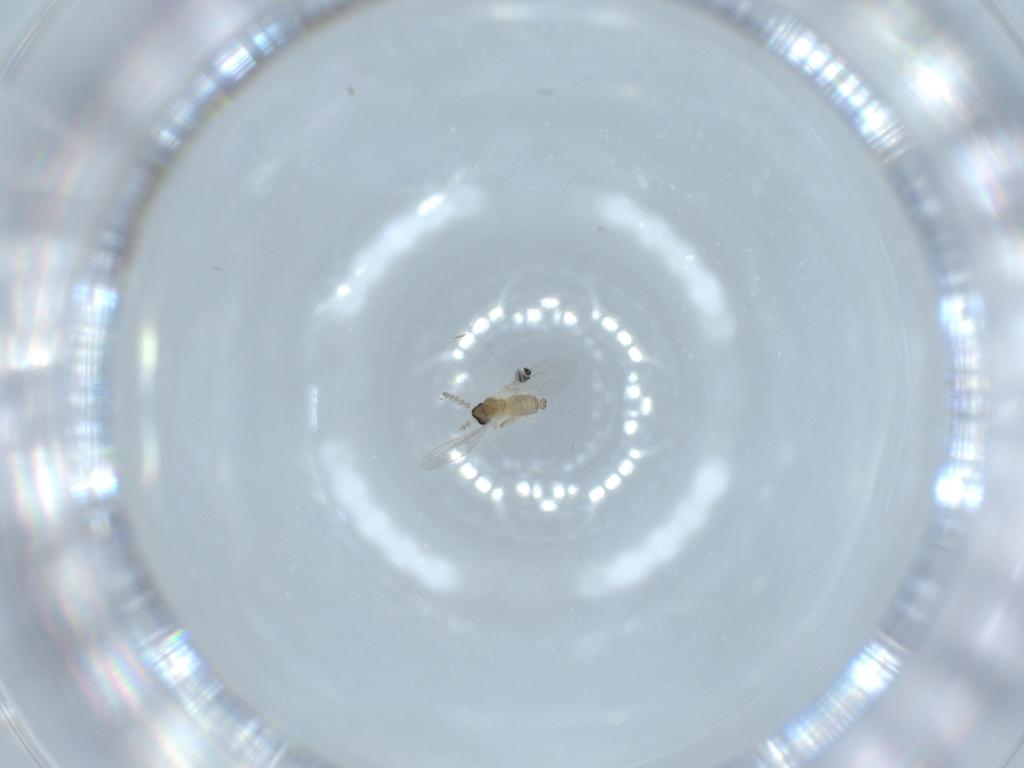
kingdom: Animalia
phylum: Arthropoda
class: Insecta
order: Diptera
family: Cecidomyiidae
